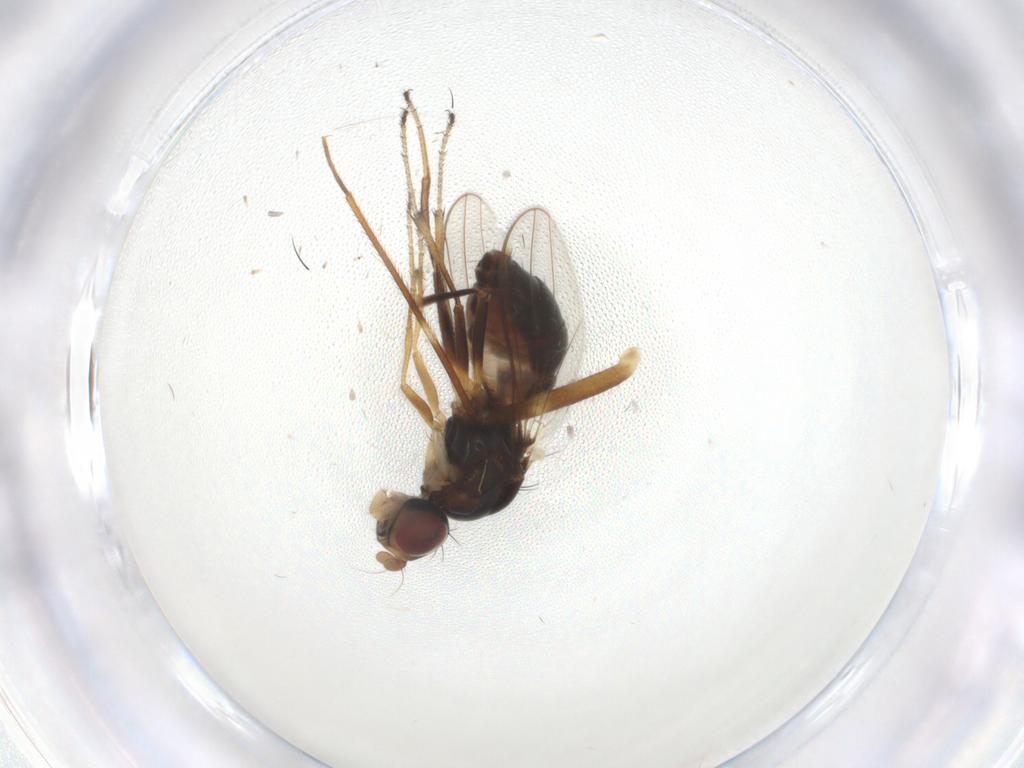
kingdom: Animalia
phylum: Arthropoda
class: Insecta
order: Diptera
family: Sepsidae
